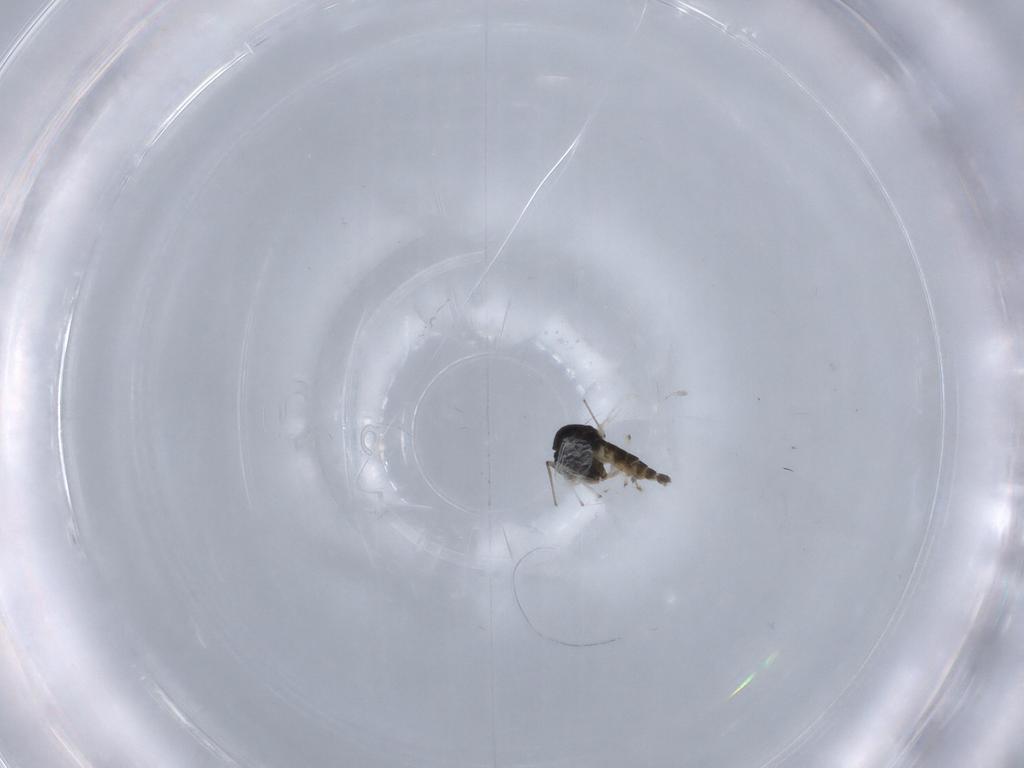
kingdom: Animalia
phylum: Arthropoda
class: Insecta
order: Diptera
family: Chironomidae
